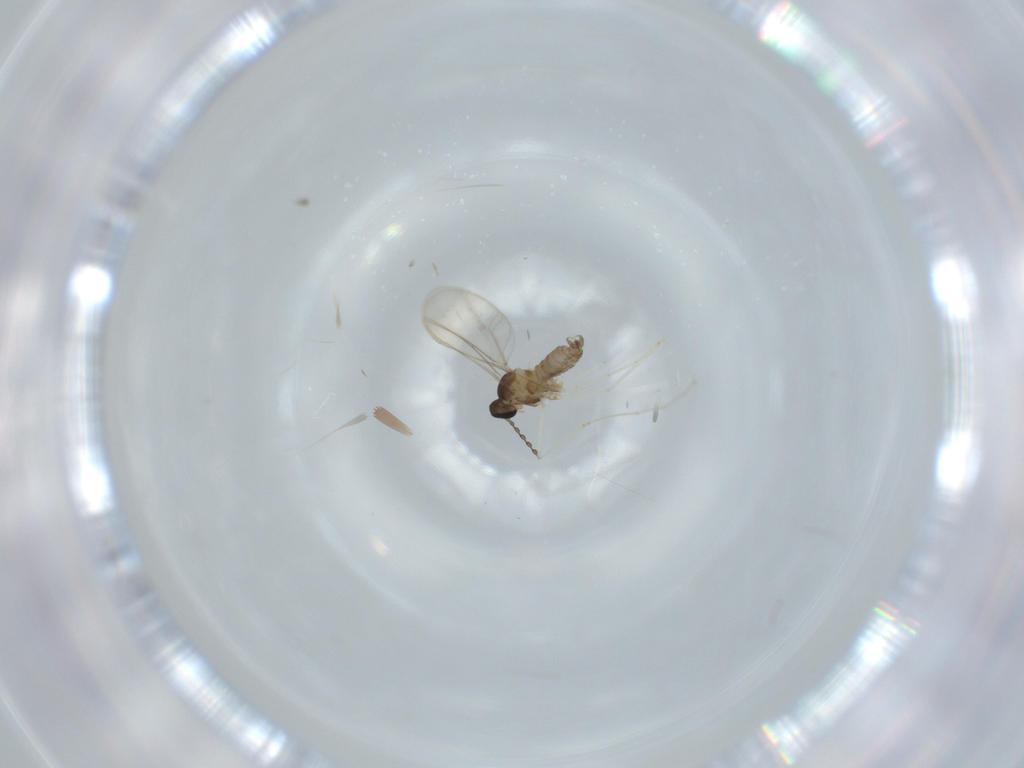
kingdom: Animalia
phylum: Arthropoda
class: Insecta
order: Diptera
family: Cecidomyiidae
